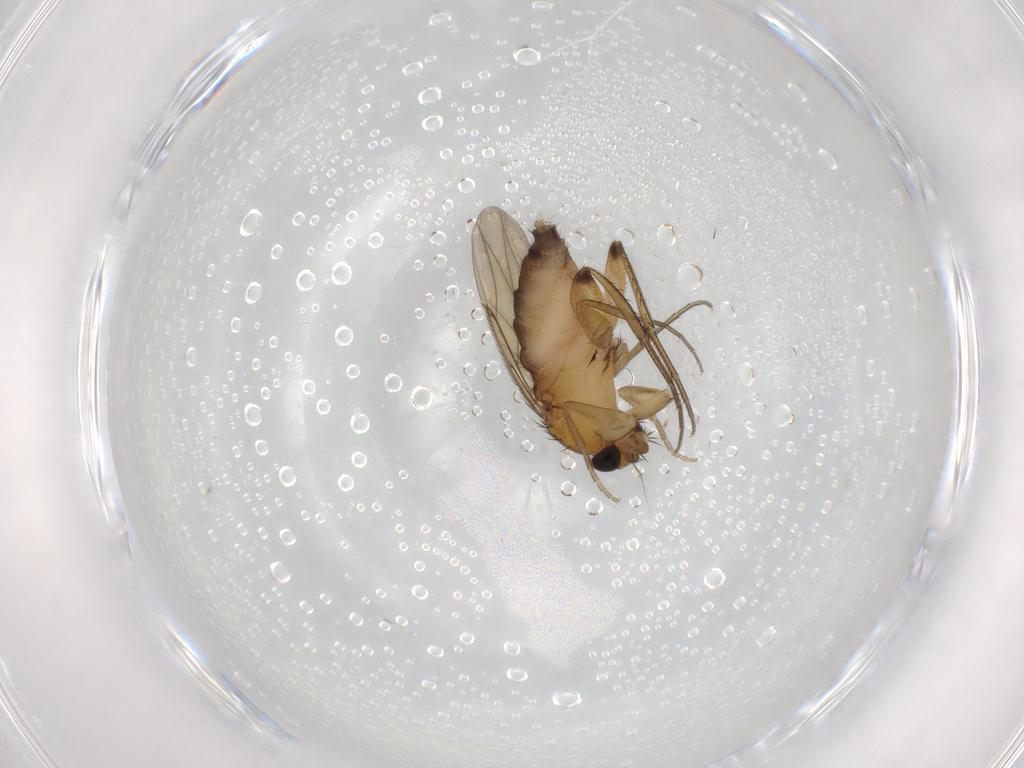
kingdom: Animalia
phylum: Arthropoda
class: Insecta
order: Diptera
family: Phoridae
